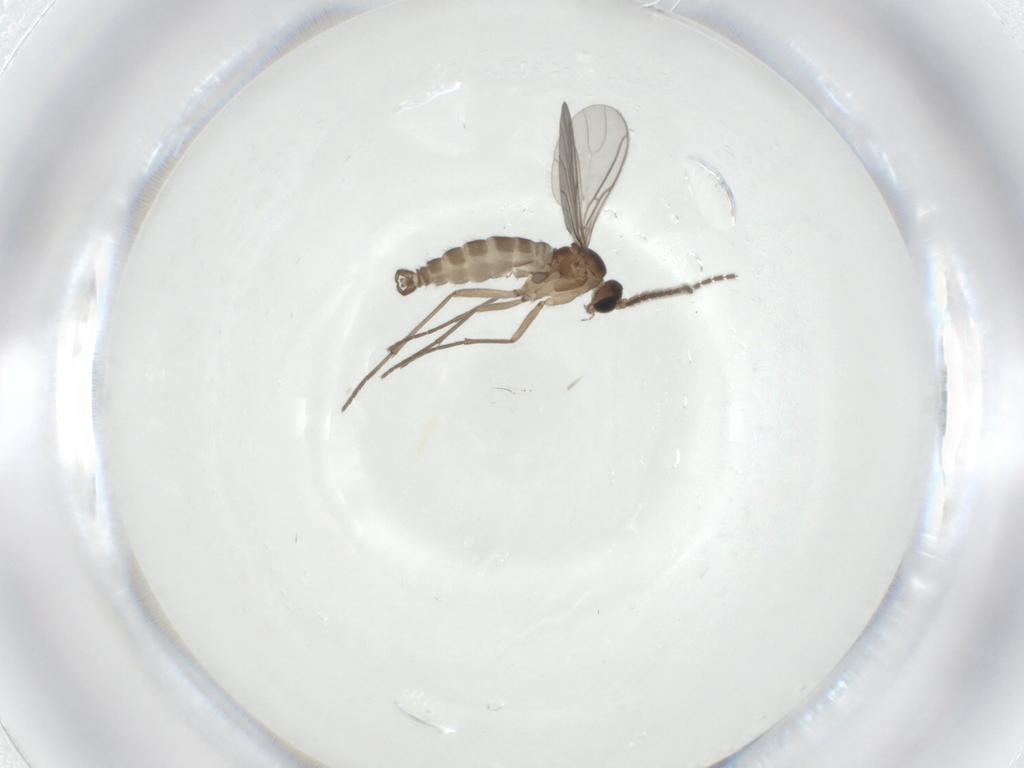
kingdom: Animalia
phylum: Arthropoda
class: Insecta
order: Diptera
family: Sciaridae
